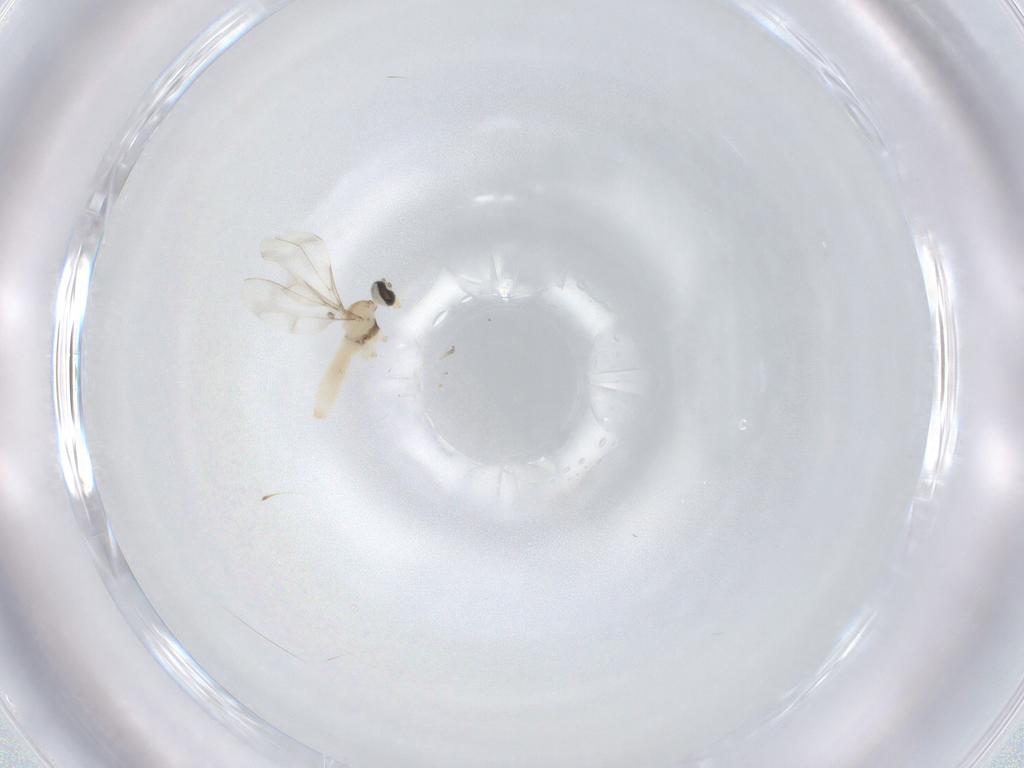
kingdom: Animalia
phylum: Arthropoda
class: Insecta
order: Diptera
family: Cecidomyiidae
